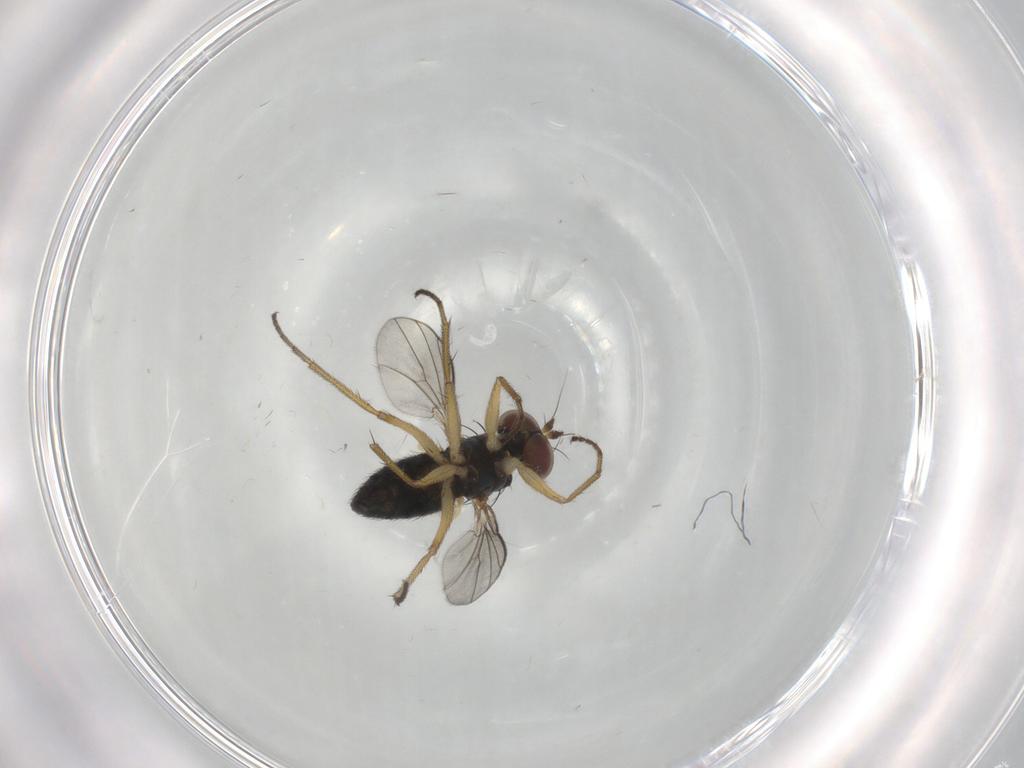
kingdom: Animalia
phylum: Arthropoda
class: Insecta
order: Diptera
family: Dolichopodidae
